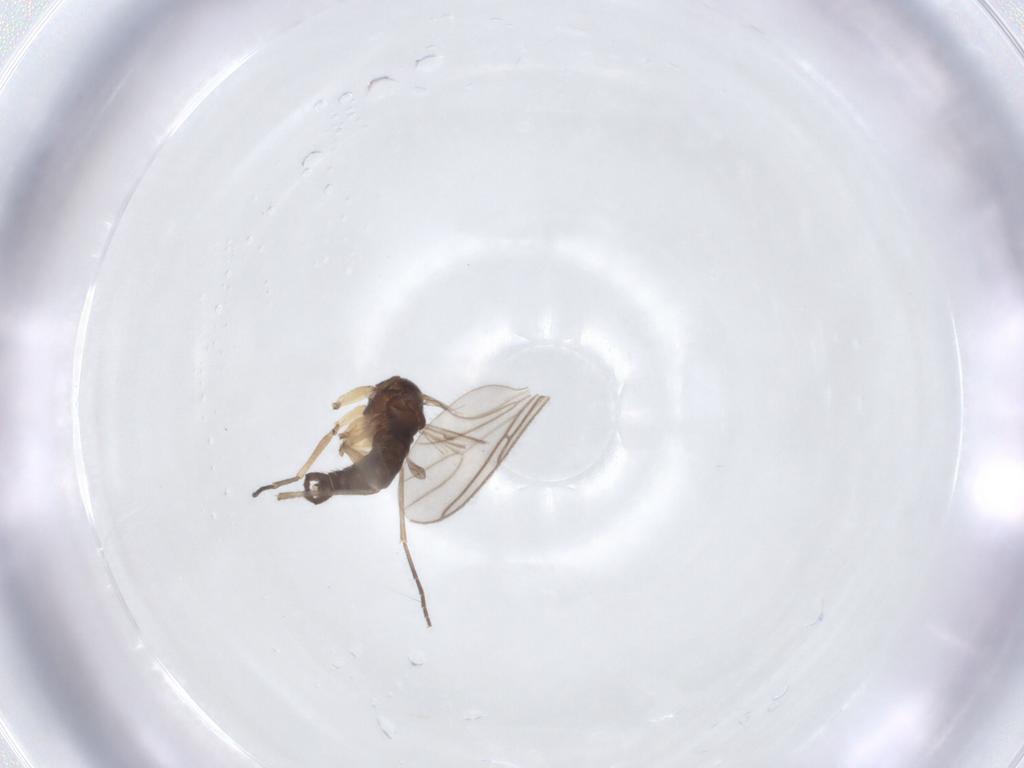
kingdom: Animalia
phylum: Arthropoda
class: Insecta
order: Diptera
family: Sciaridae
